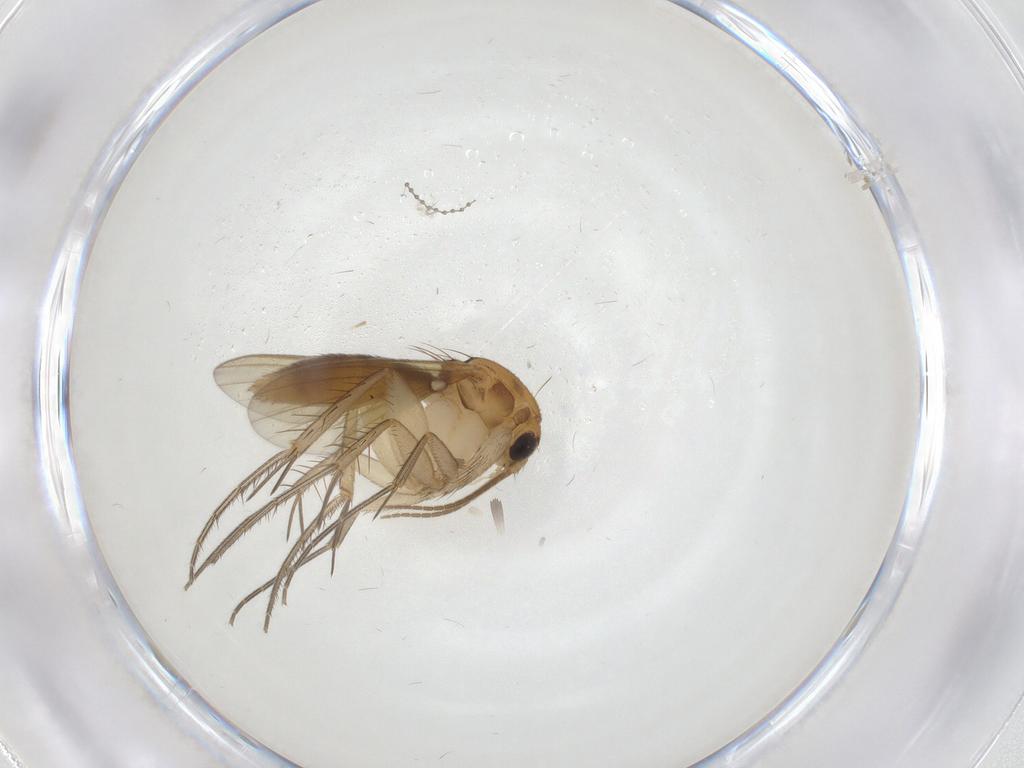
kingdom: Animalia
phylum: Arthropoda
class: Insecta
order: Diptera
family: Mycetophilidae
